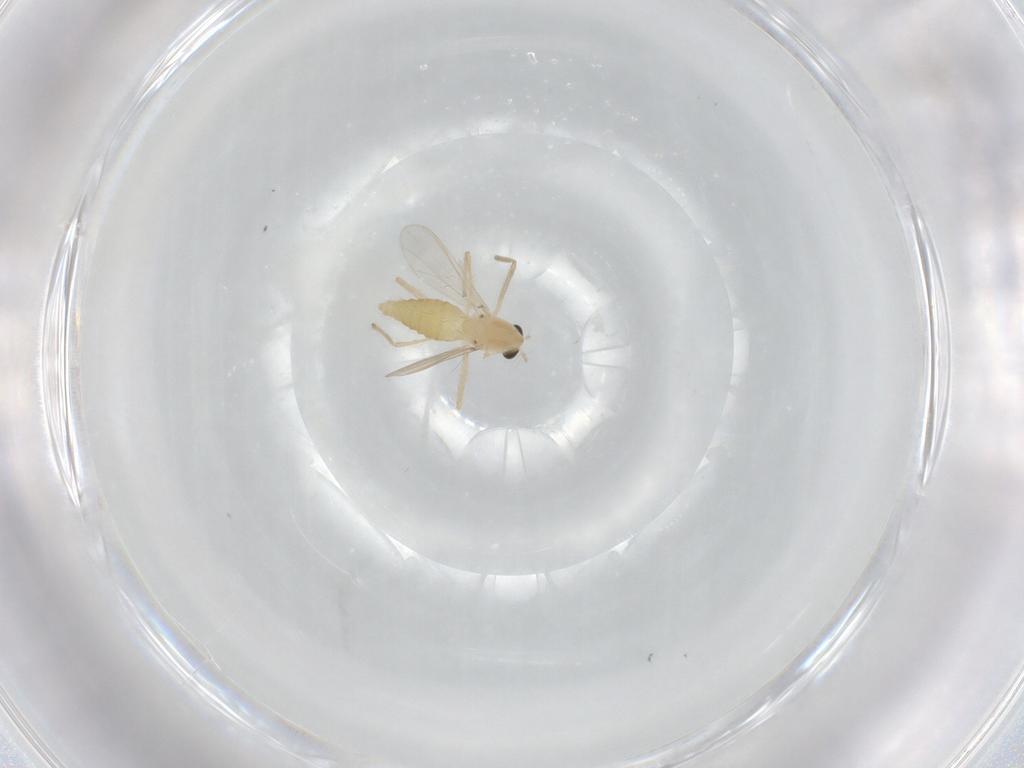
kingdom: Animalia
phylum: Arthropoda
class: Insecta
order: Diptera
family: Chironomidae
